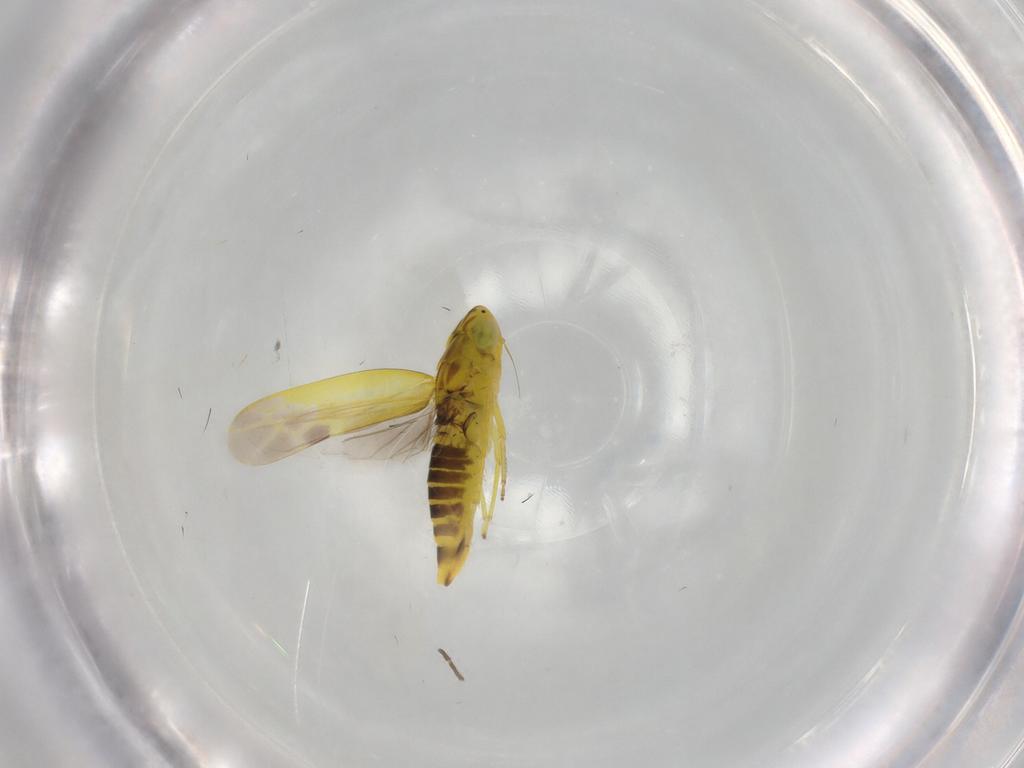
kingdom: Animalia
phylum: Arthropoda
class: Insecta
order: Hemiptera
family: Cicadellidae
